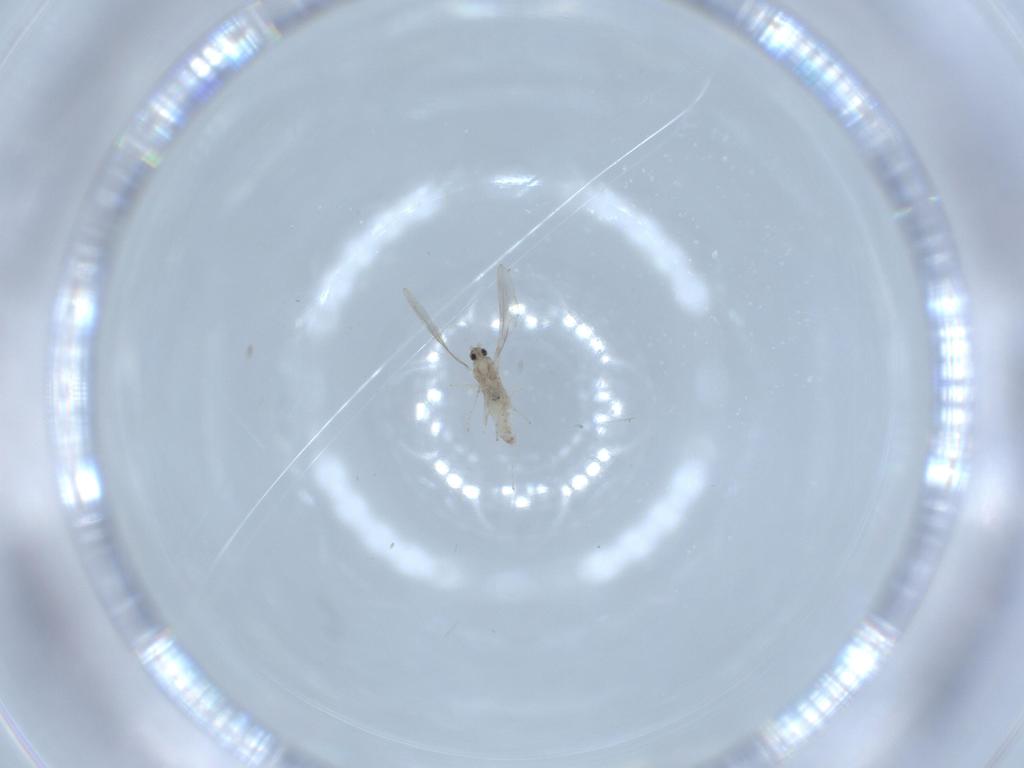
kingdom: Animalia
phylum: Arthropoda
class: Insecta
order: Diptera
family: Cecidomyiidae
